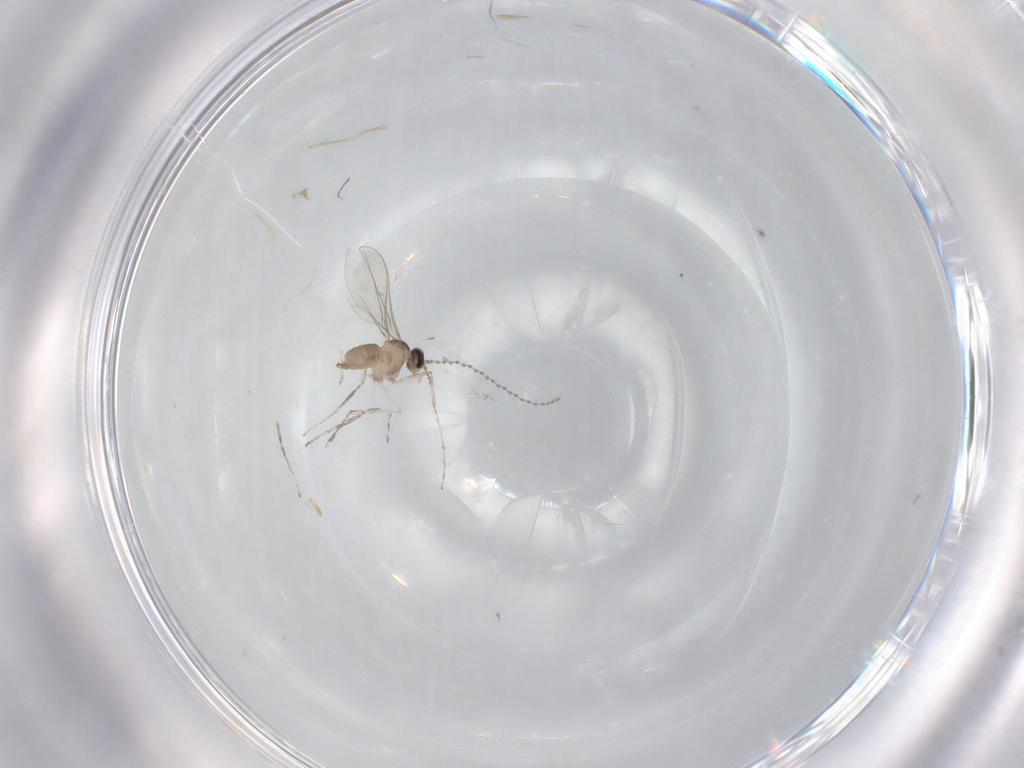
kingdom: Animalia
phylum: Arthropoda
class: Insecta
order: Diptera
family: Cecidomyiidae
